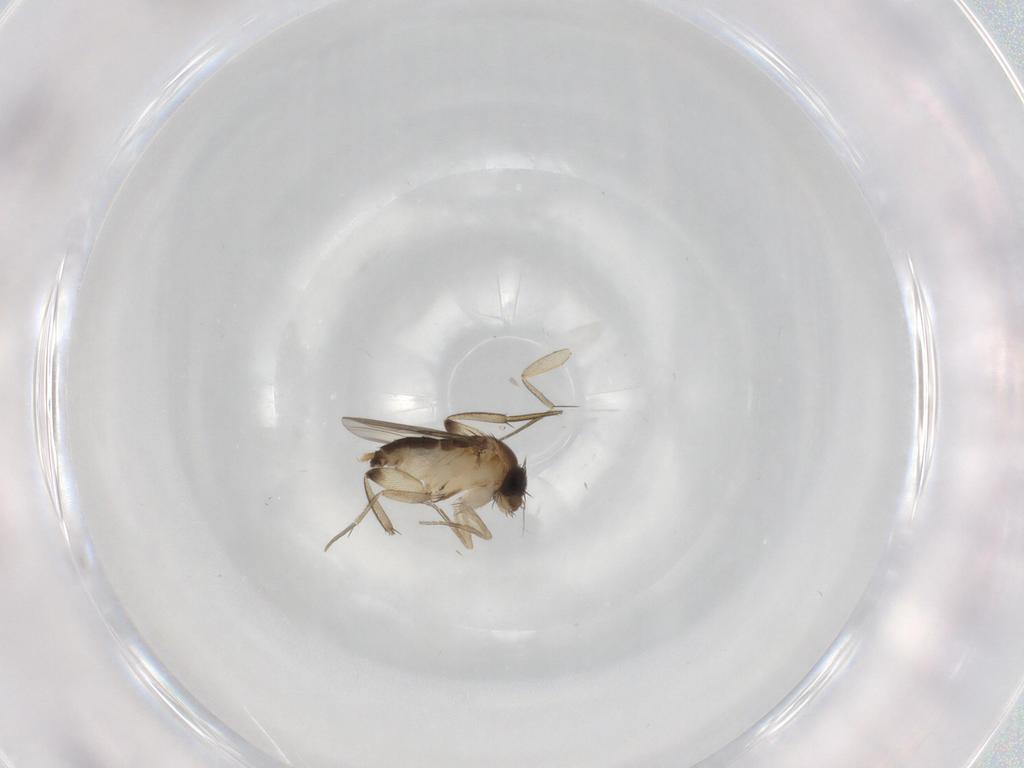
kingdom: Animalia
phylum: Arthropoda
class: Insecta
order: Diptera
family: Phoridae
